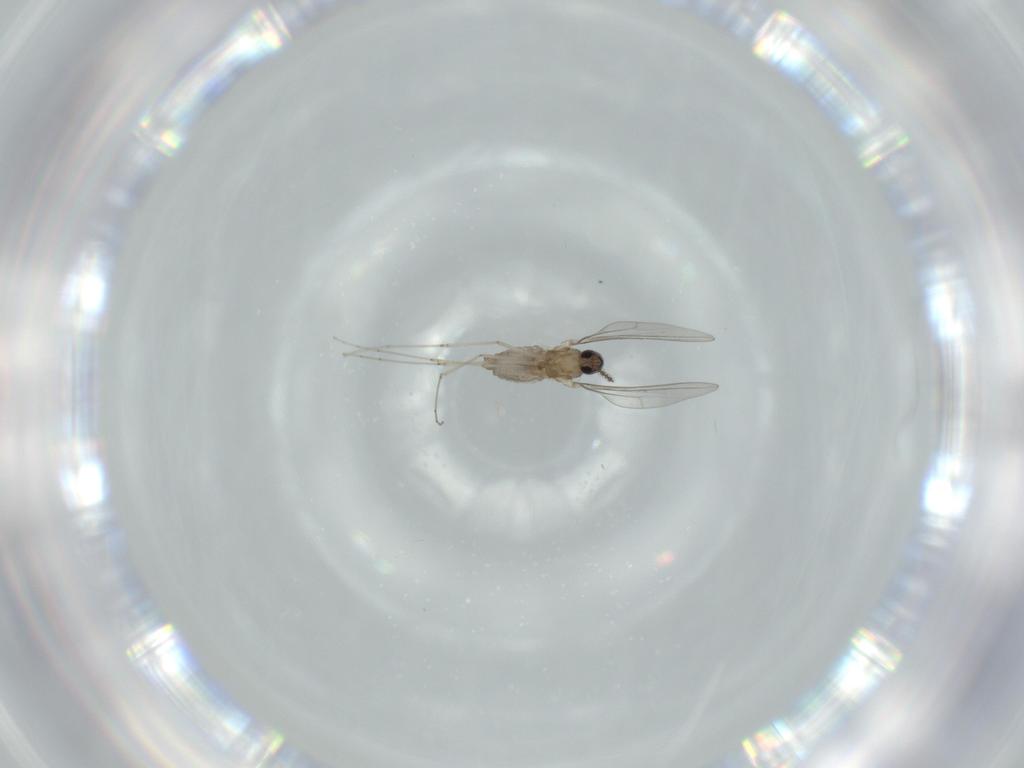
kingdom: Animalia
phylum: Arthropoda
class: Insecta
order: Diptera
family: Cecidomyiidae
